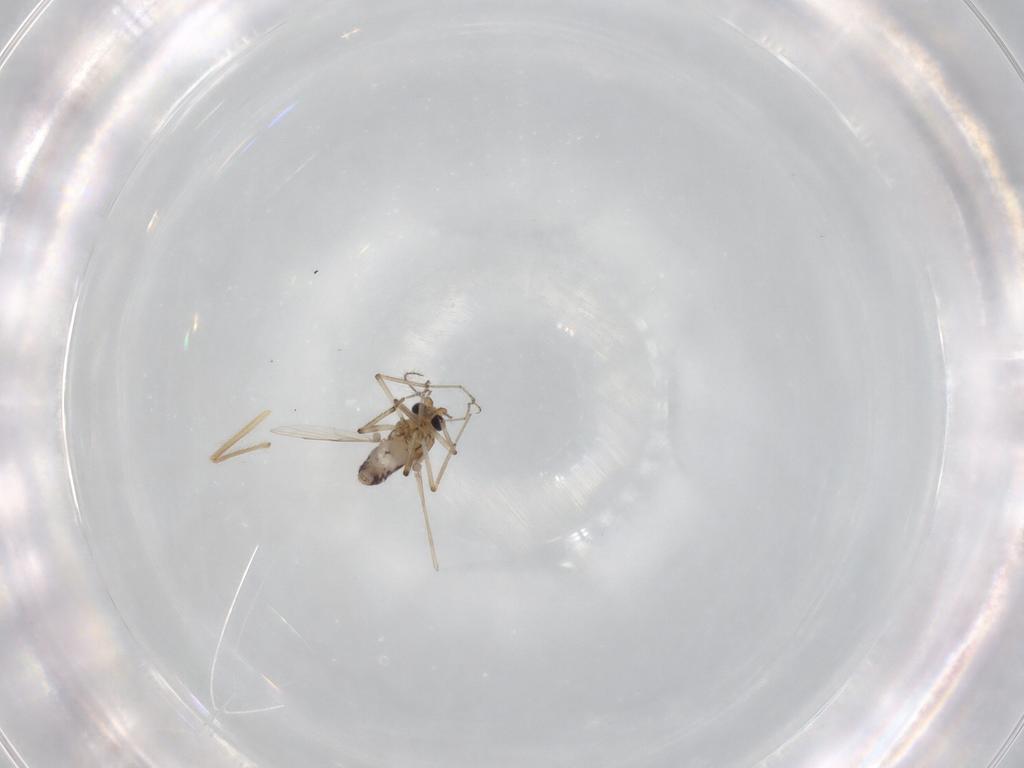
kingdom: Animalia
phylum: Arthropoda
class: Insecta
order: Diptera
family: Ceratopogonidae
